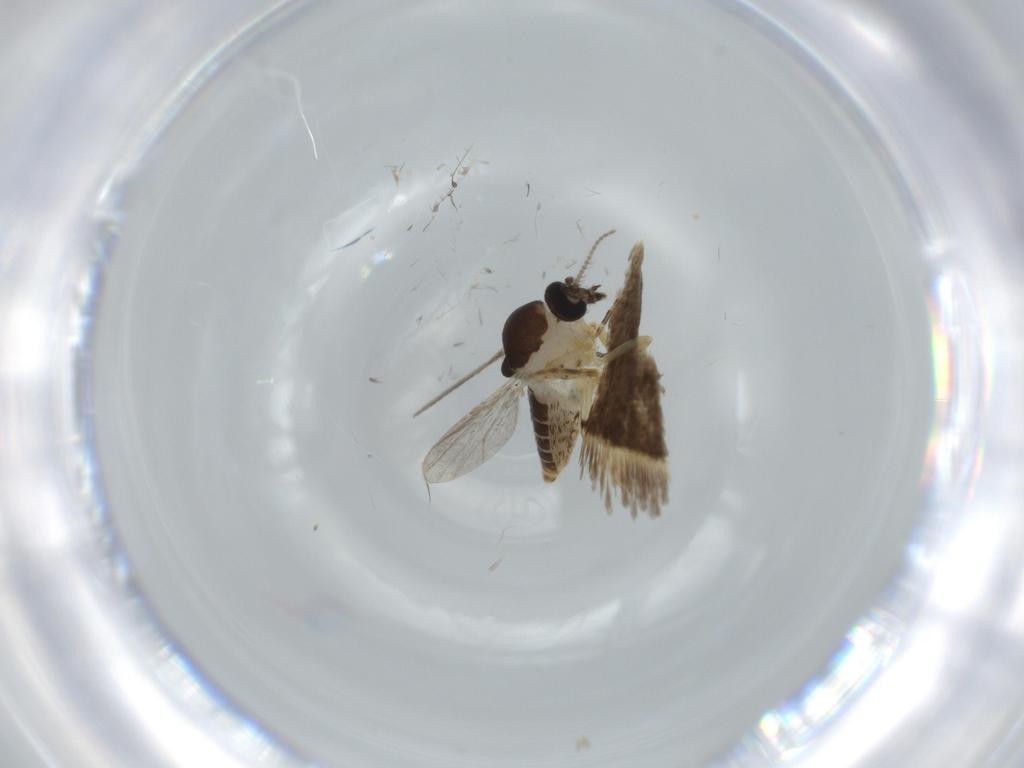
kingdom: Animalia
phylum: Arthropoda
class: Insecta
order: Diptera
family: Ceratopogonidae
